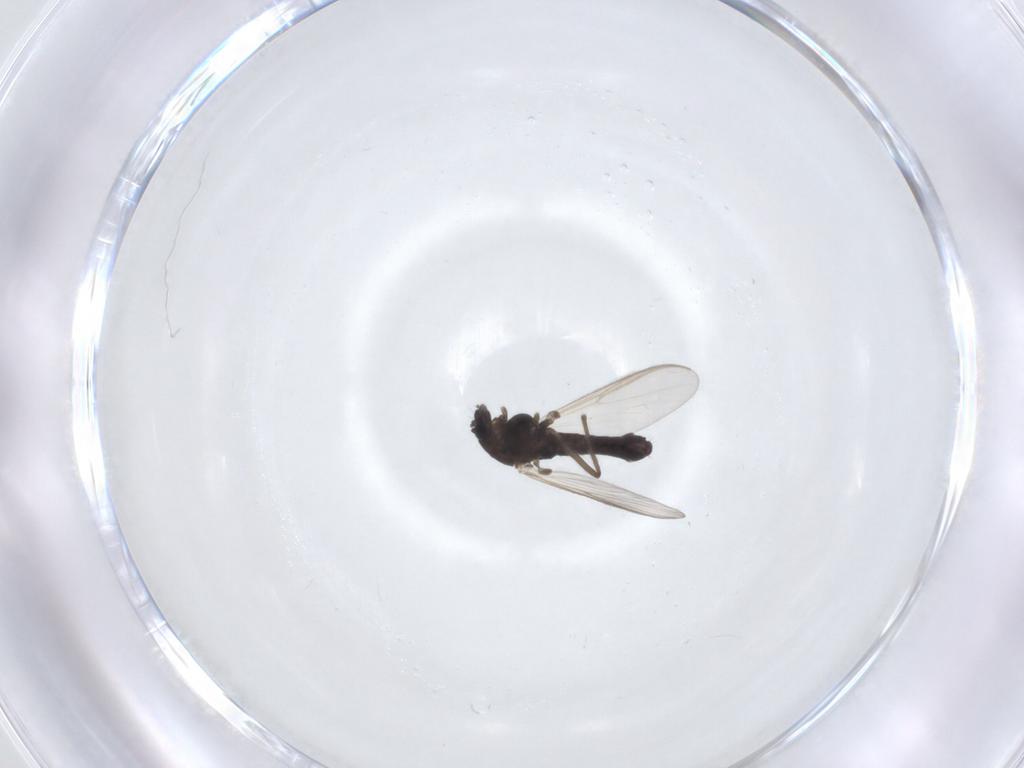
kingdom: Animalia
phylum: Arthropoda
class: Insecta
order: Diptera
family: Chironomidae
